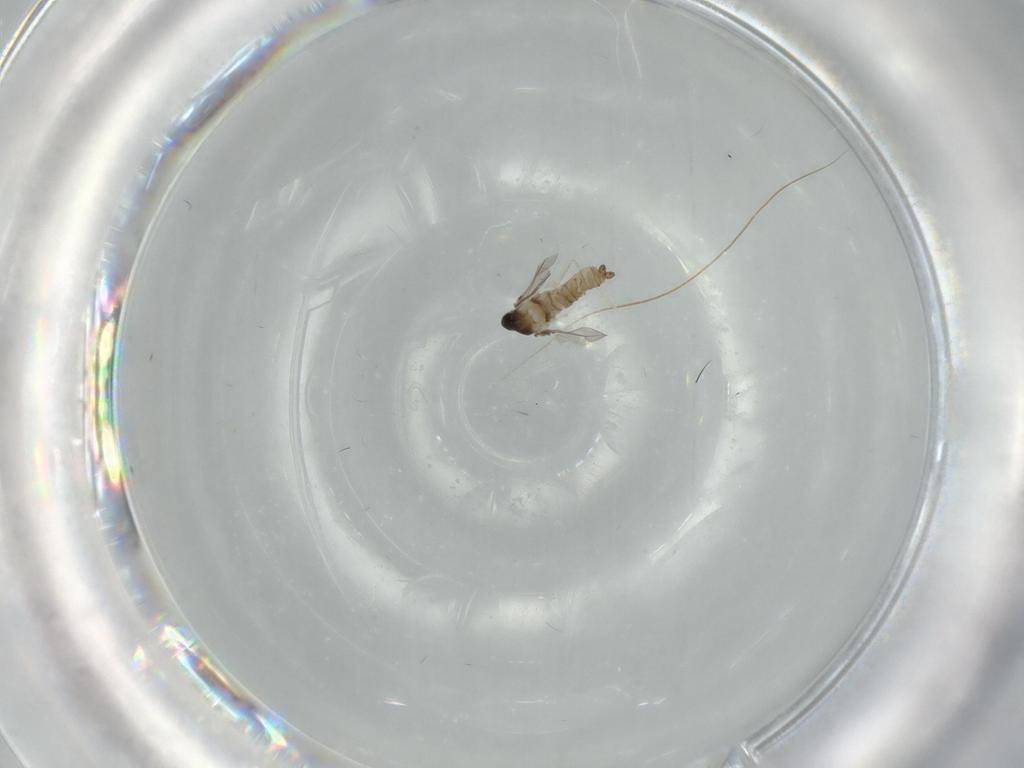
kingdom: Animalia
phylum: Arthropoda
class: Insecta
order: Diptera
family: Cecidomyiidae
